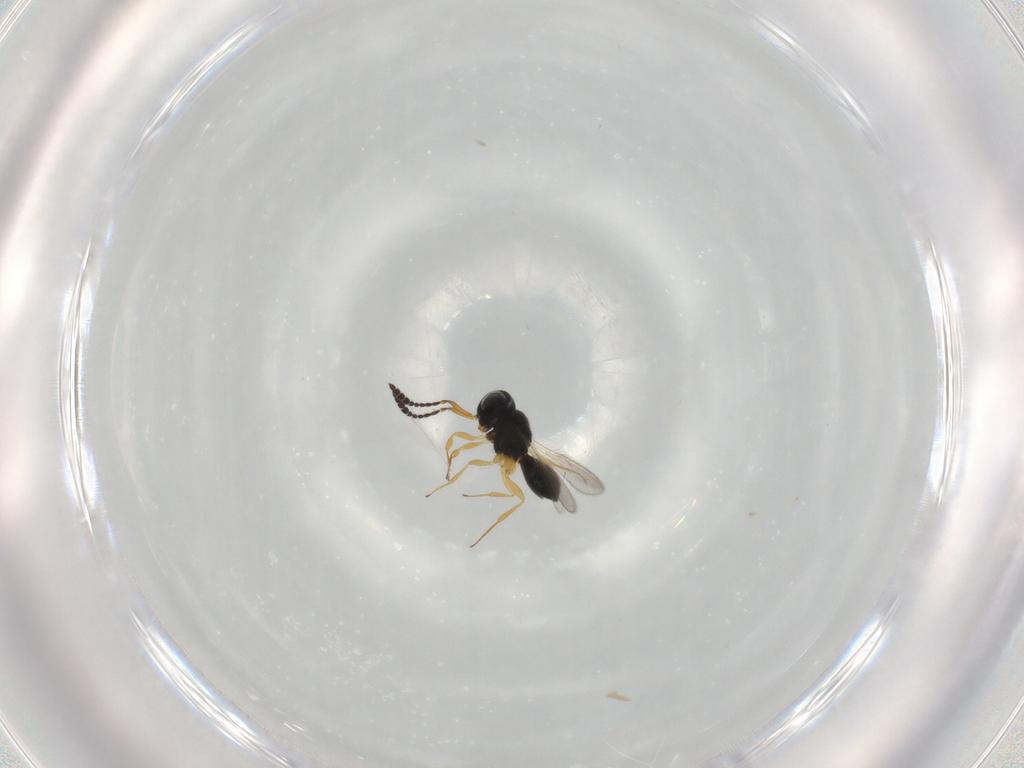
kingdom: Animalia
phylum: Arthropoda
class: Insecta
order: Hymenoptera
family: Scelionidae
